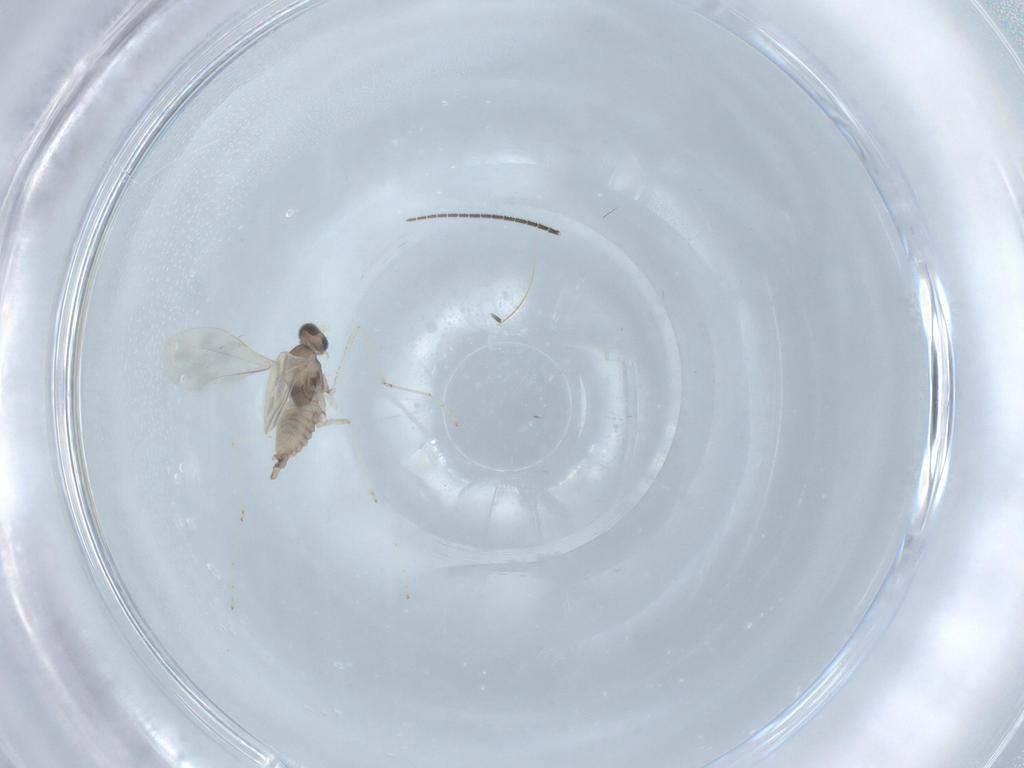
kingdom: Animalia
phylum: Arthropoda
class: Insecta
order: Diptera
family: Cecidomyiidae
